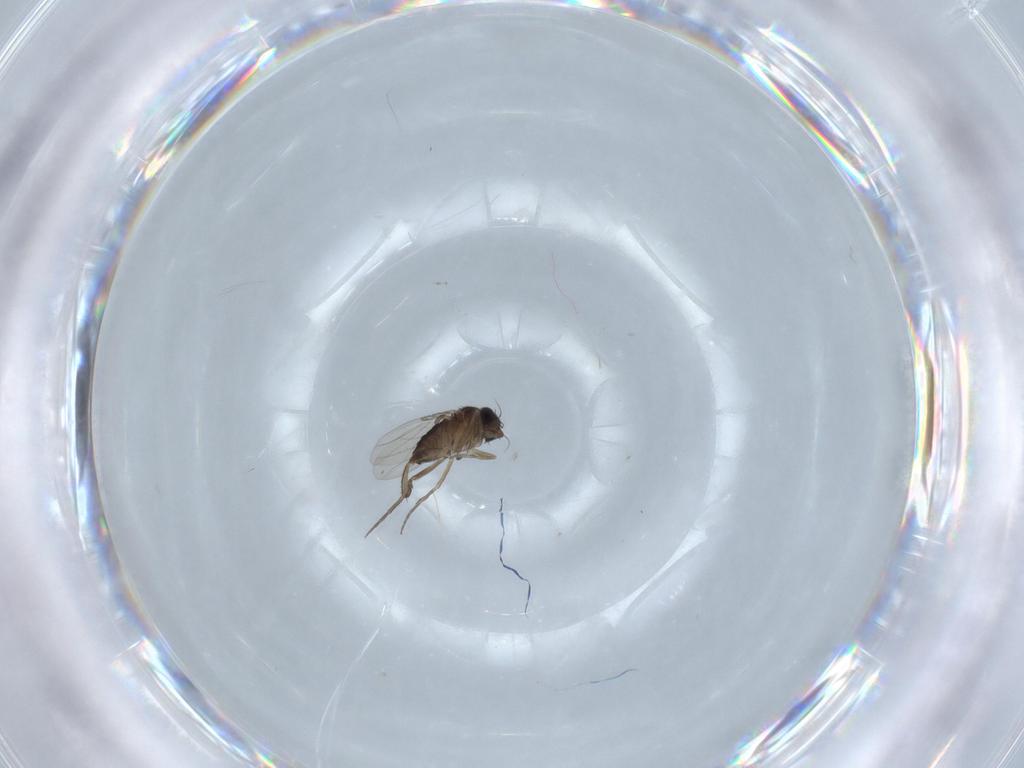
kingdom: Animalia
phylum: Arthropoda
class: Insecta
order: Diptera
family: Phoridae
